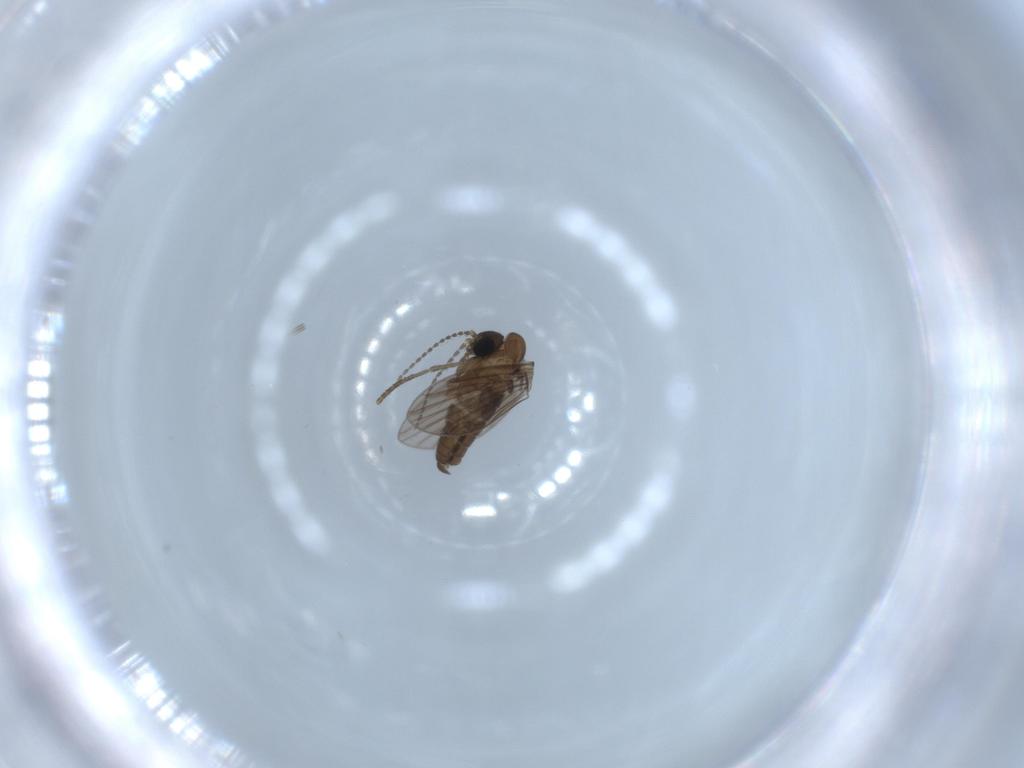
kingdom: Animalia
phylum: Arthropoda
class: Insecta
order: Diptera
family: Psychodidae
